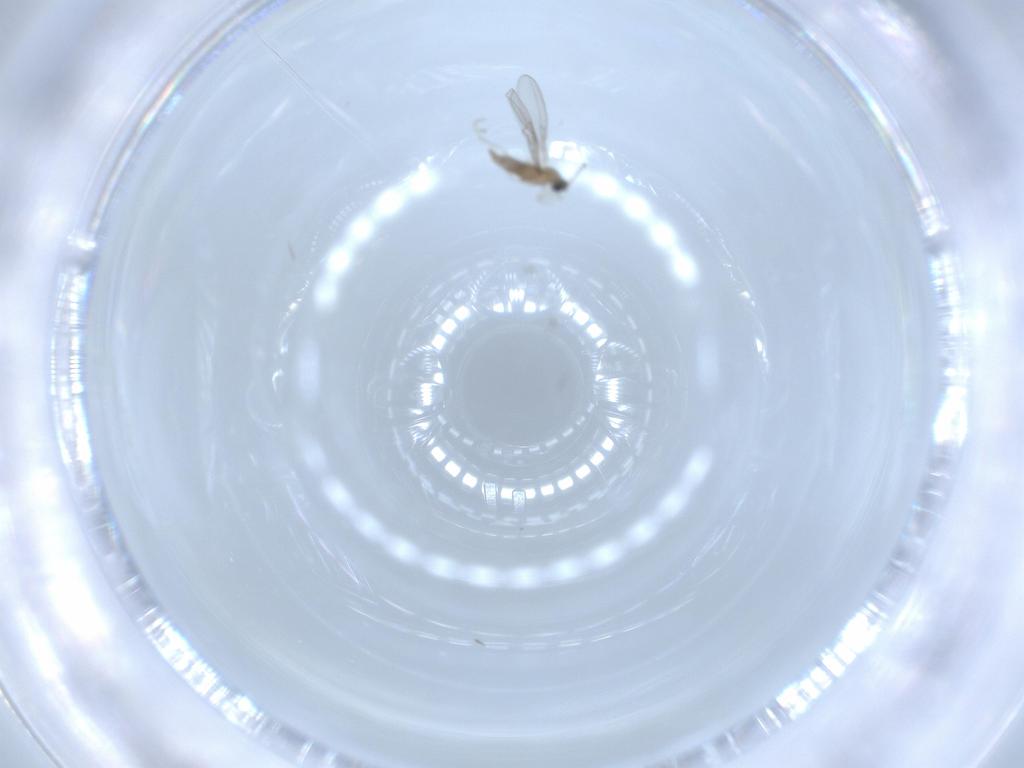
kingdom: Animalia
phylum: Arthropoda
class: Insecta
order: Diptera
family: Cecidomyiidae
